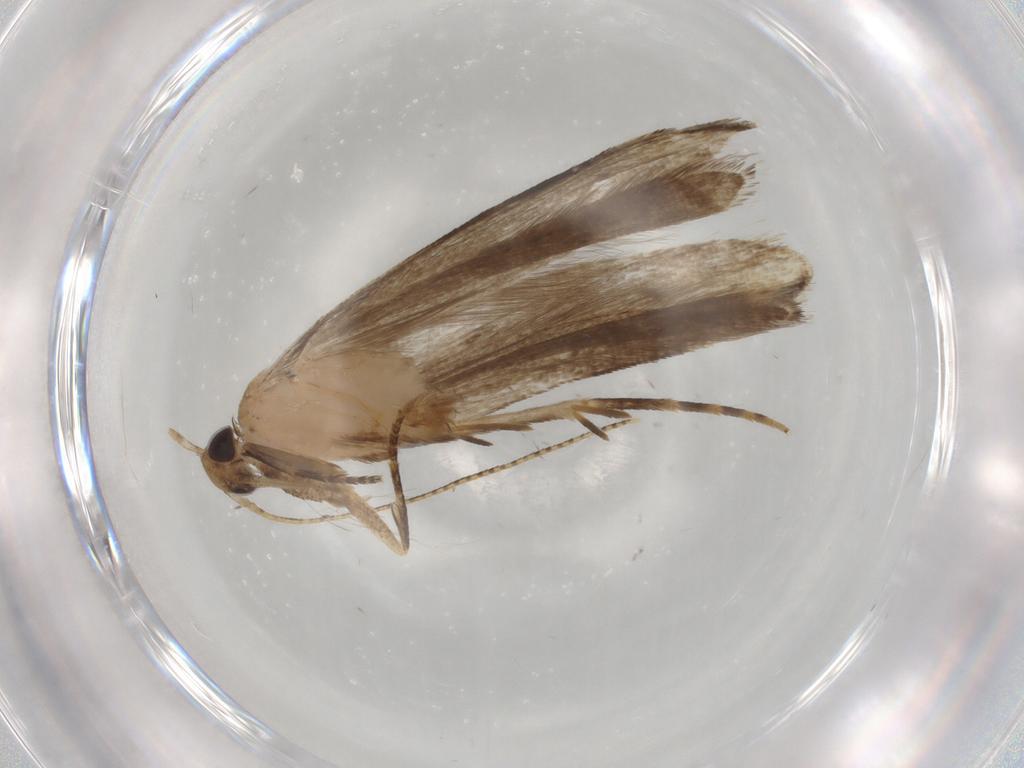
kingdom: Animalia
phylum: Arthropoda
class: Insecta
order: Lepidoptera
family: Gelechiidae
